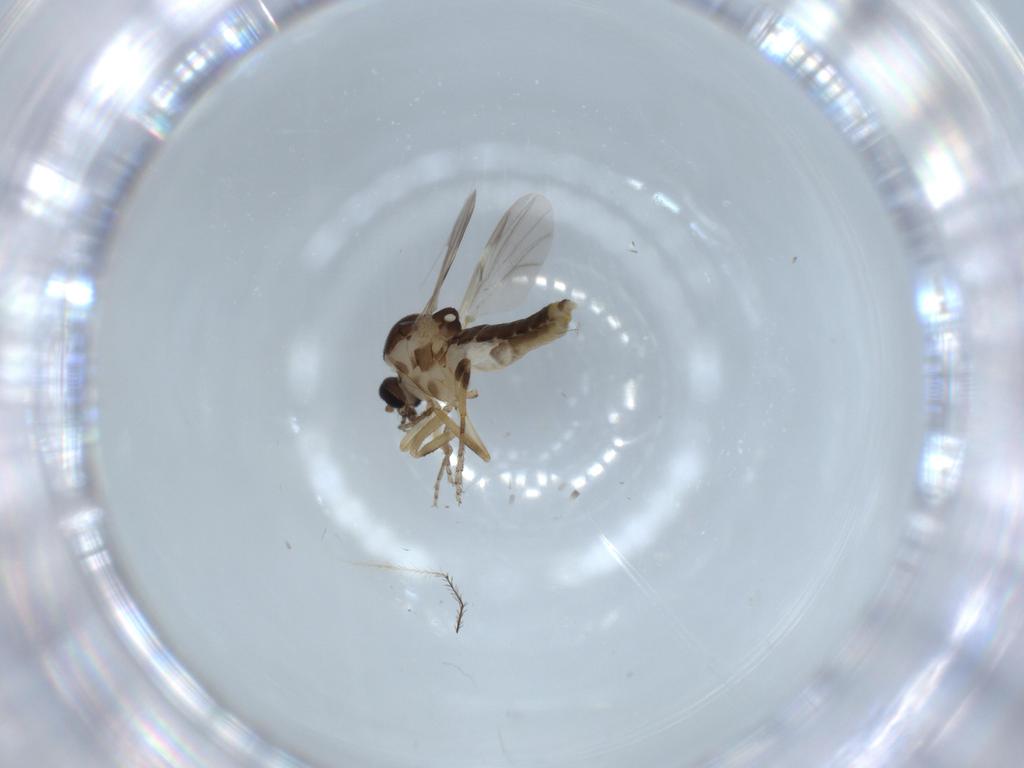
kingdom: Animalia
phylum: Arthropoda
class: Insecta
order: Diptera
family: Ceratopogonidae
